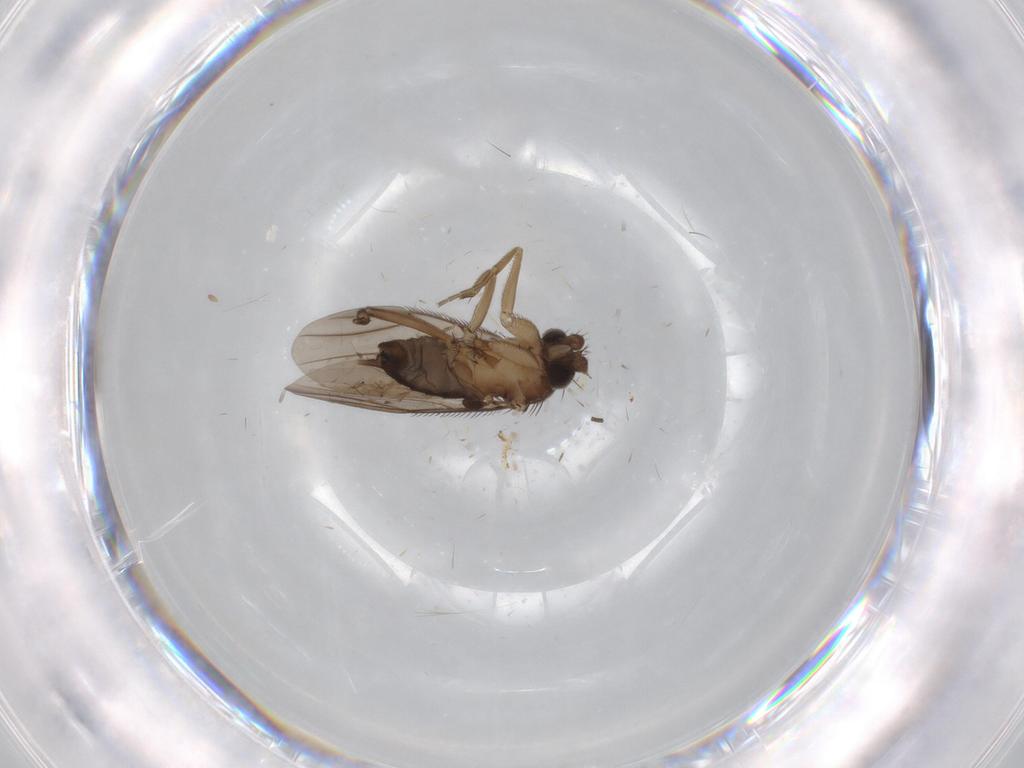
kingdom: Animalia
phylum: Arthropoda
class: Insecta
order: Diptera
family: Cecidomyiidae
